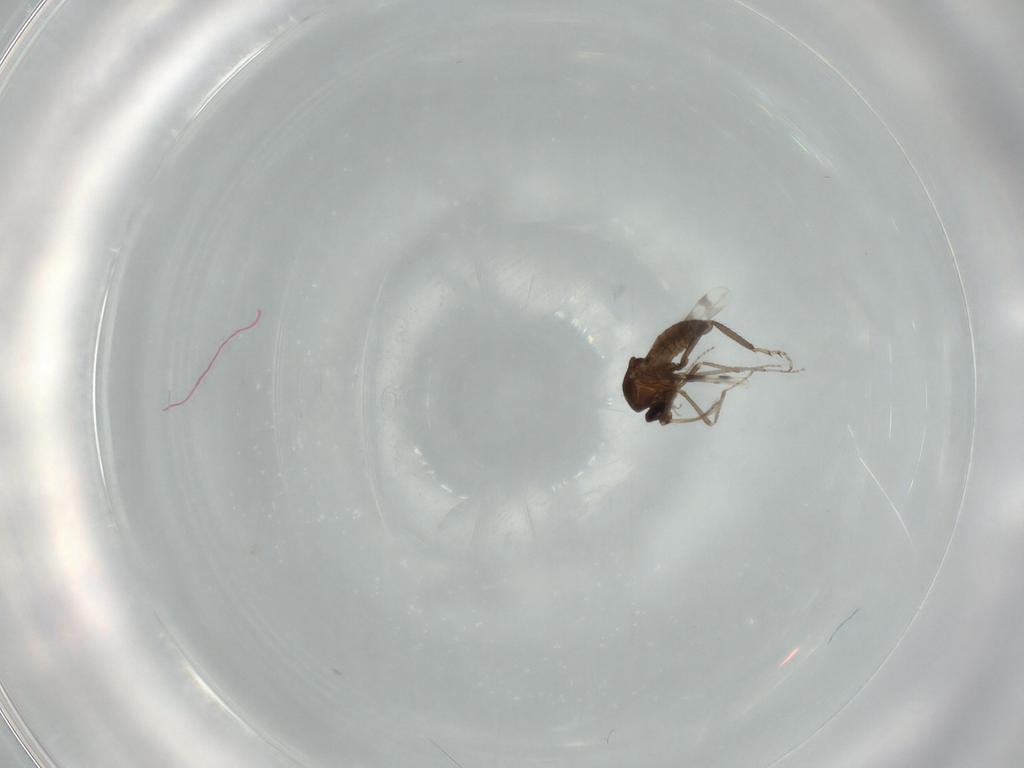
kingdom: Animalia
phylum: Arthropoda
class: Insecta
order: Diptera
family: Ceratopogonidae
